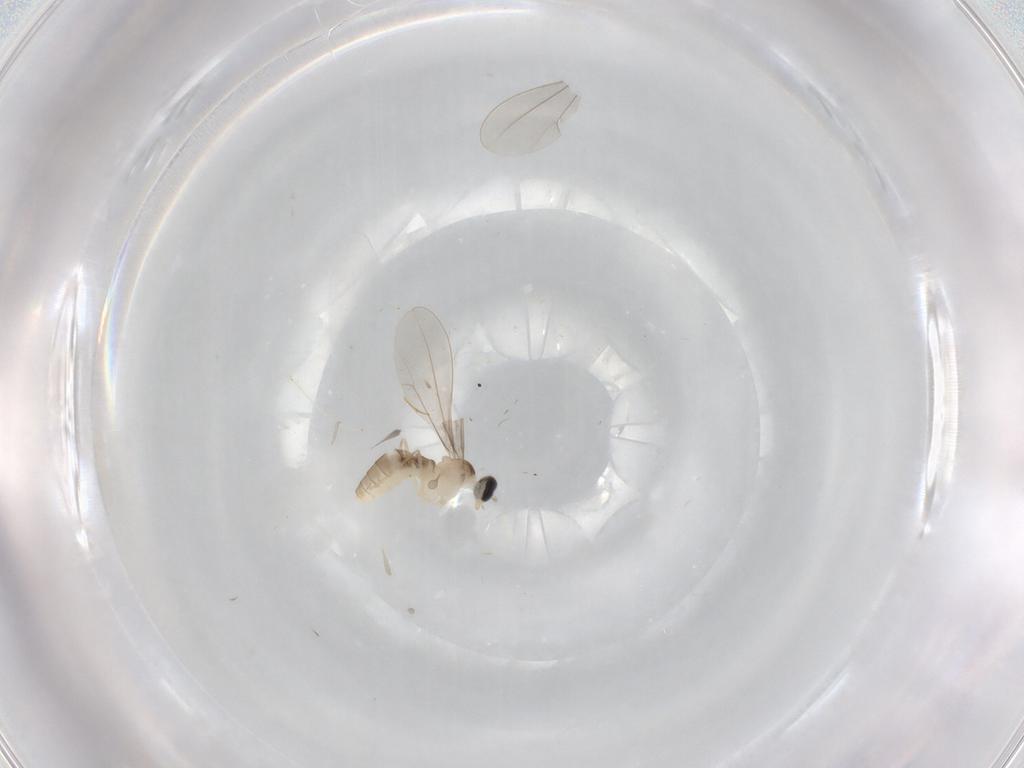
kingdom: Animalia
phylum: Arthropoda
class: Insecta
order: Diptera
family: Cecidomyiidae
